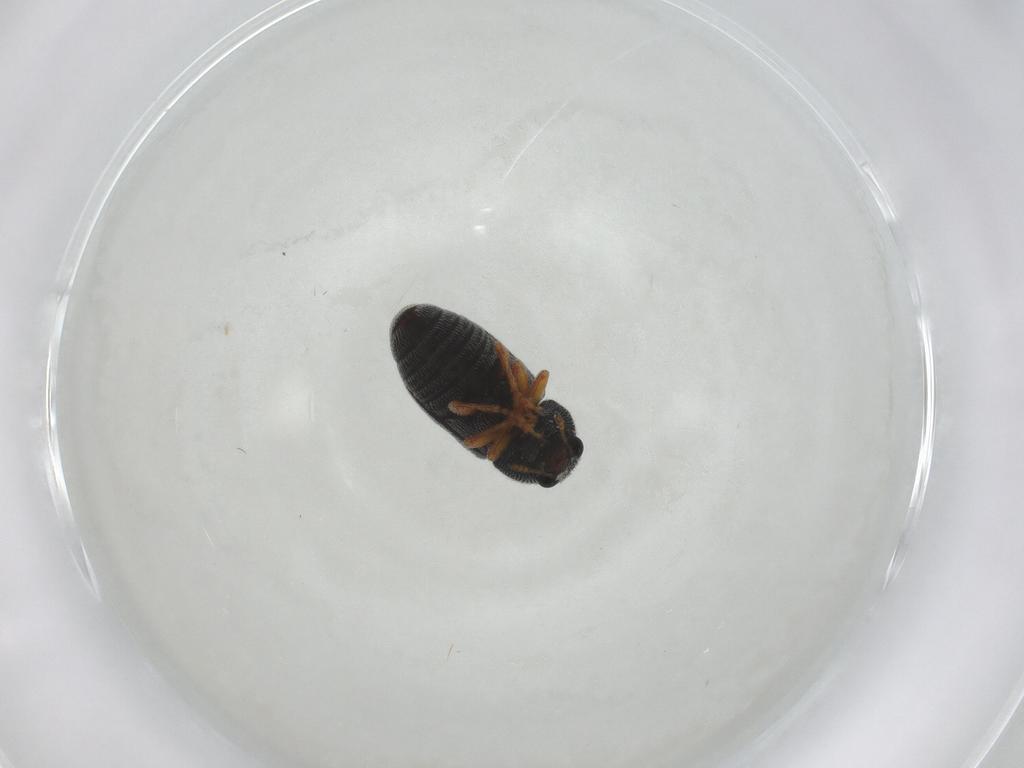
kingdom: Animalia
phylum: Arthropoda
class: Insecta
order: Coleoptera
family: Anthribidae
